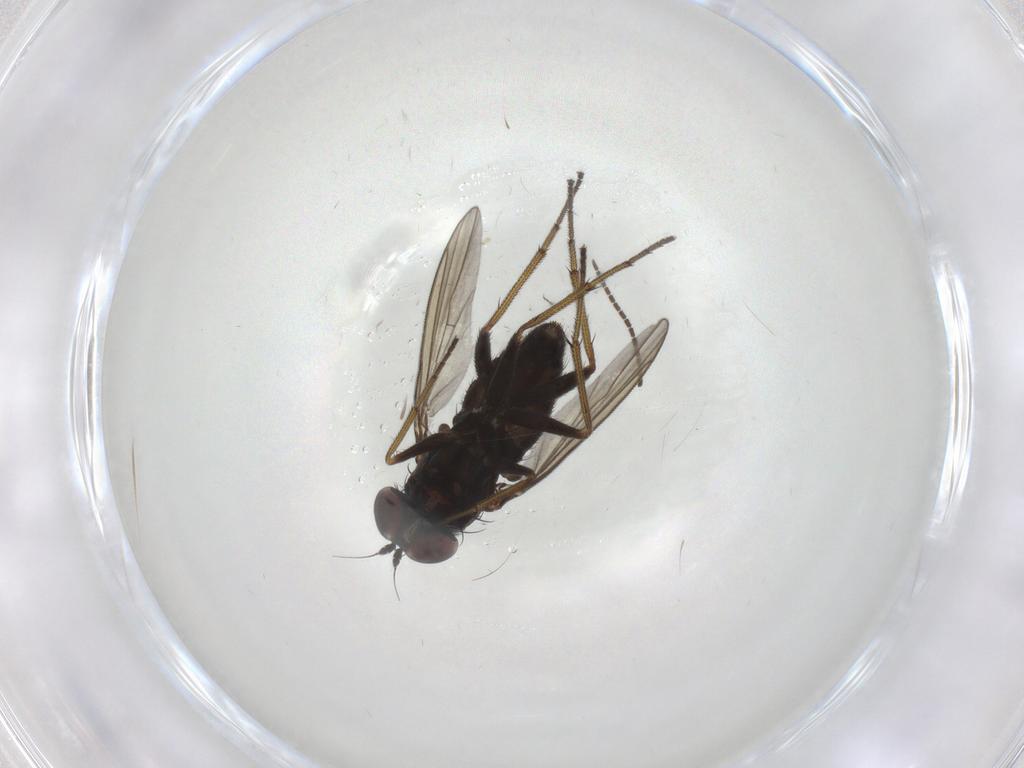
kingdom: Animalia
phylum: Arthropoda
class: Insecta
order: Diptera
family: Dolichopodidae
